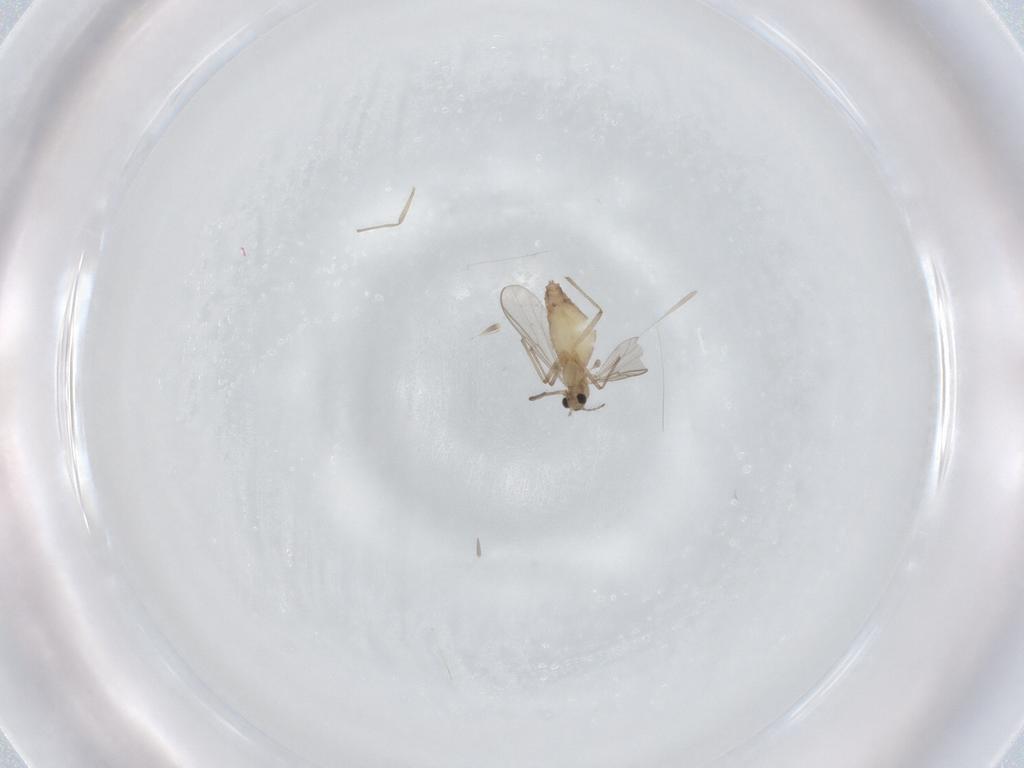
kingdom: Animalia
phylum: Arthropoda
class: Insecta
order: Diptera
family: Chironomidae
